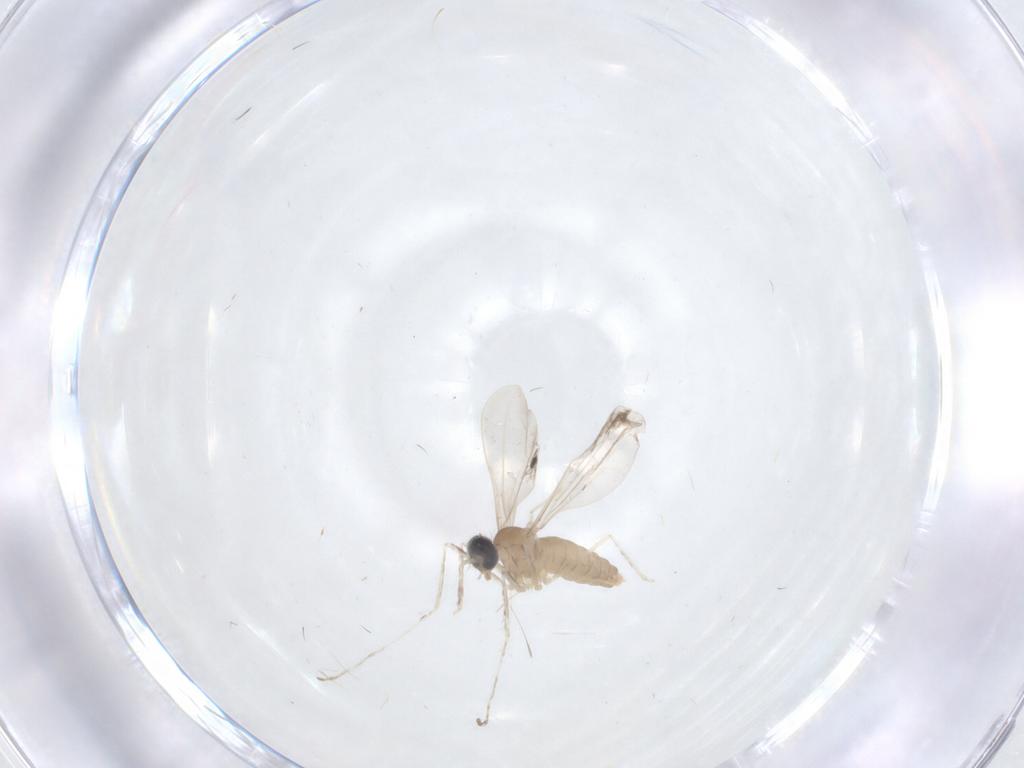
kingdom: Animalia
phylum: Arthropoda
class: Insecta
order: Diptera
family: Cecidomyiidae
